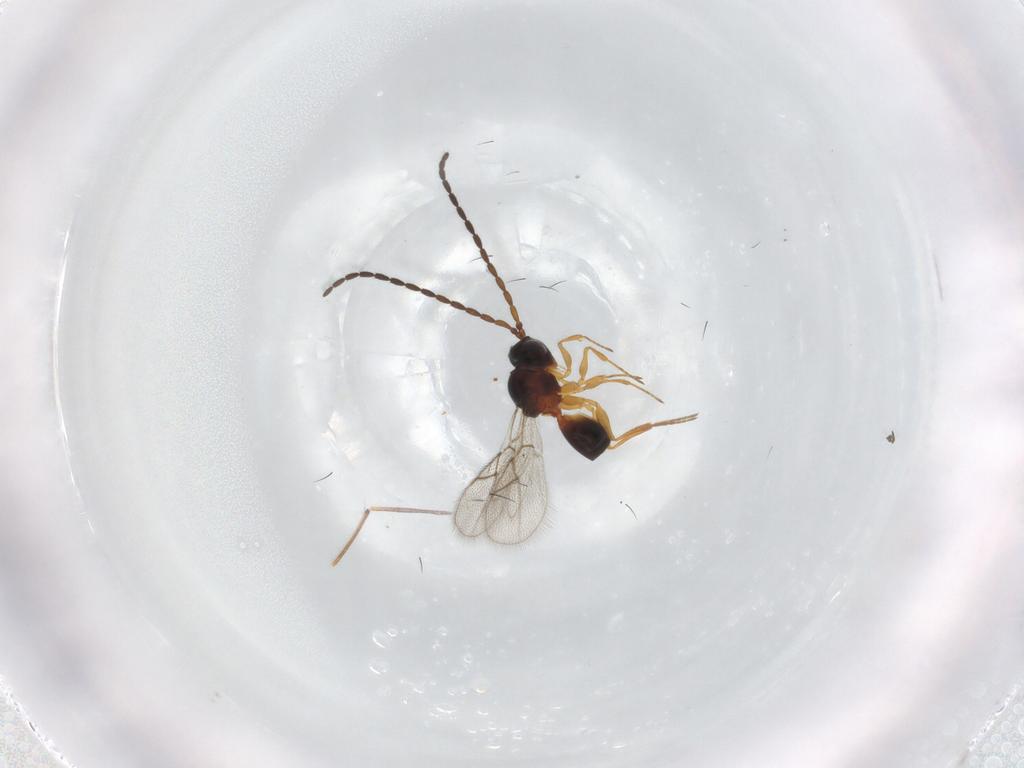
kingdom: Animalia
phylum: Arthropoda
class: Insecta
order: Hymenoptera
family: Figitidae
